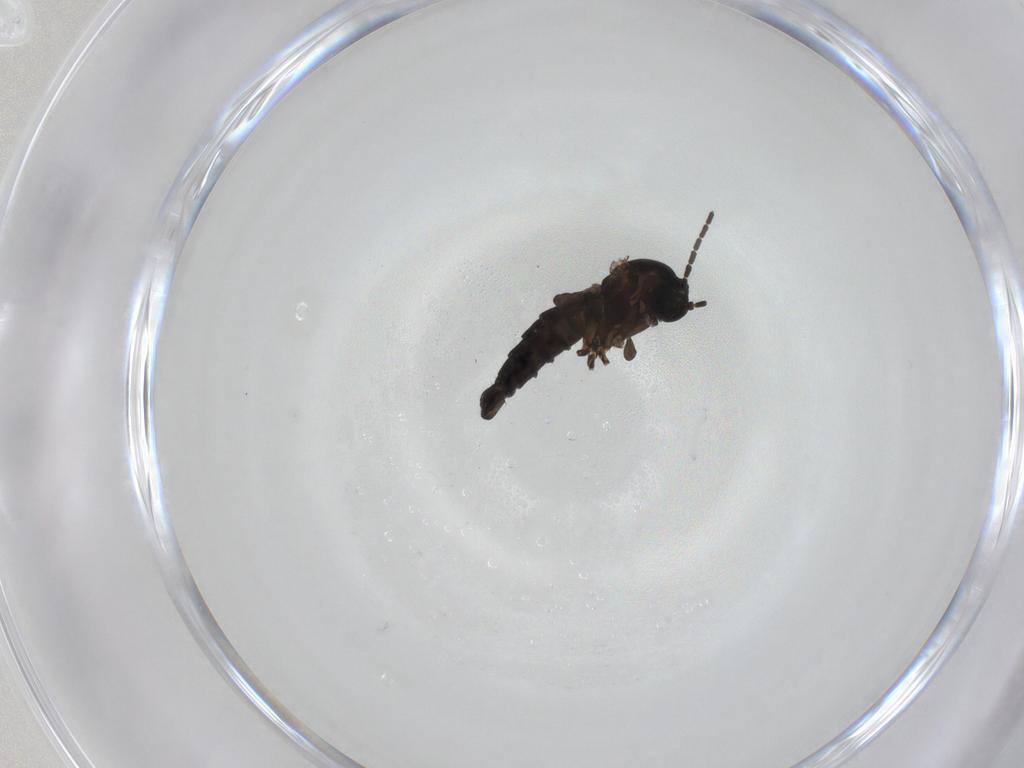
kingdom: Animalia
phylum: Arthropoda
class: Insecta
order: Diptera
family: Sciaridae
